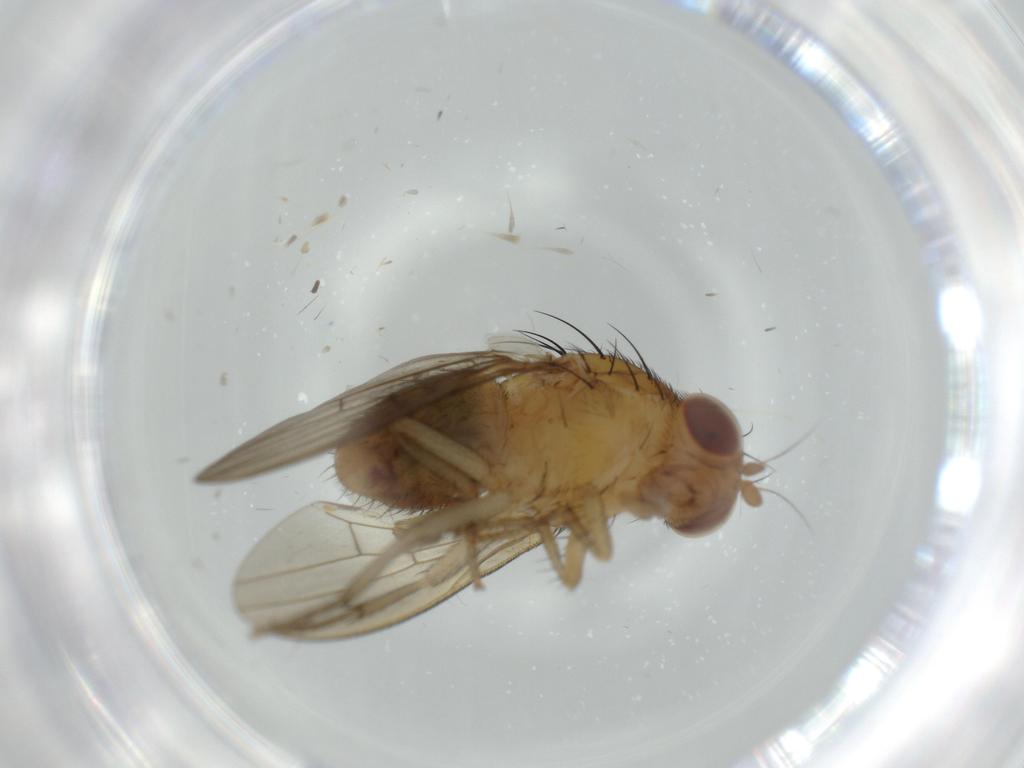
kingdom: Animalia
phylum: Arthropoda
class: Insecta
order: Diptera
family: Lauxaniidae
